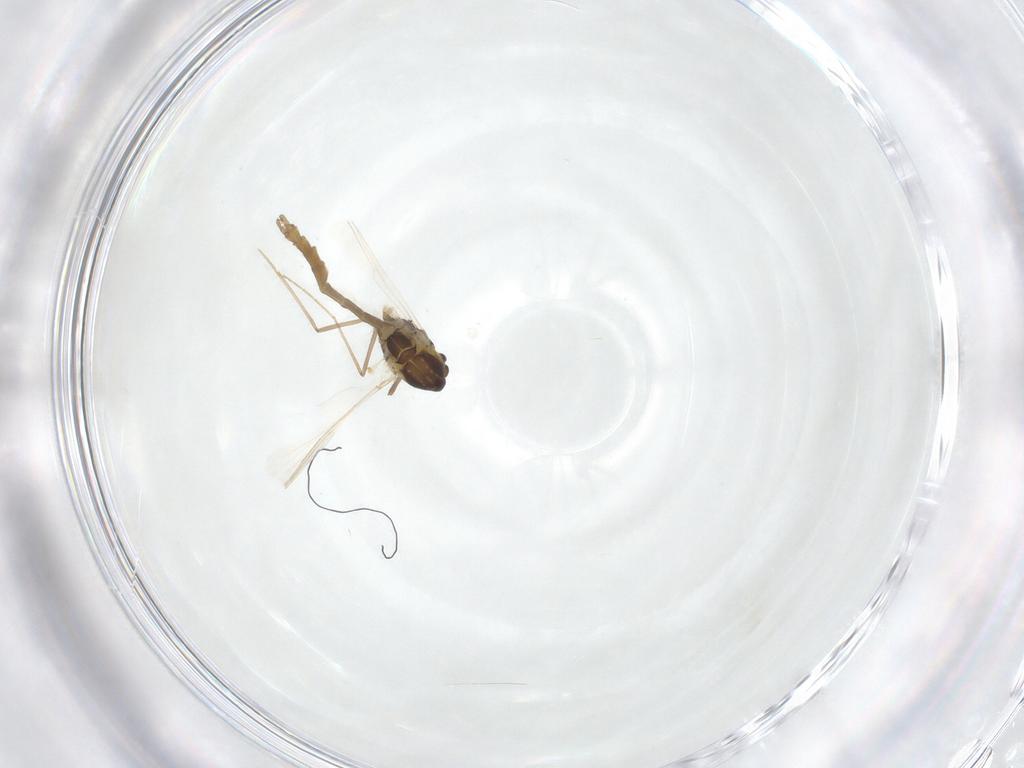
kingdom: Animalia
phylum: Arthropoda
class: Insecta
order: Diptera
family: Chironomidae
